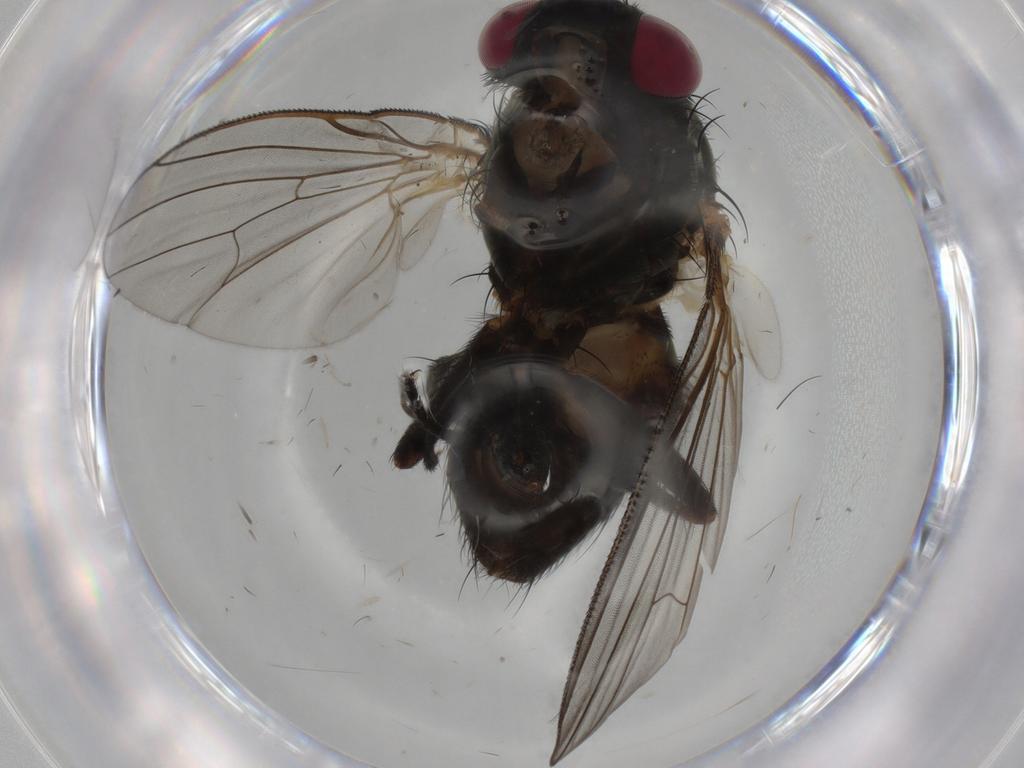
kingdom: Animalia
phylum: Arthropoda
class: Insecta
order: Diptera
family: Fannia
